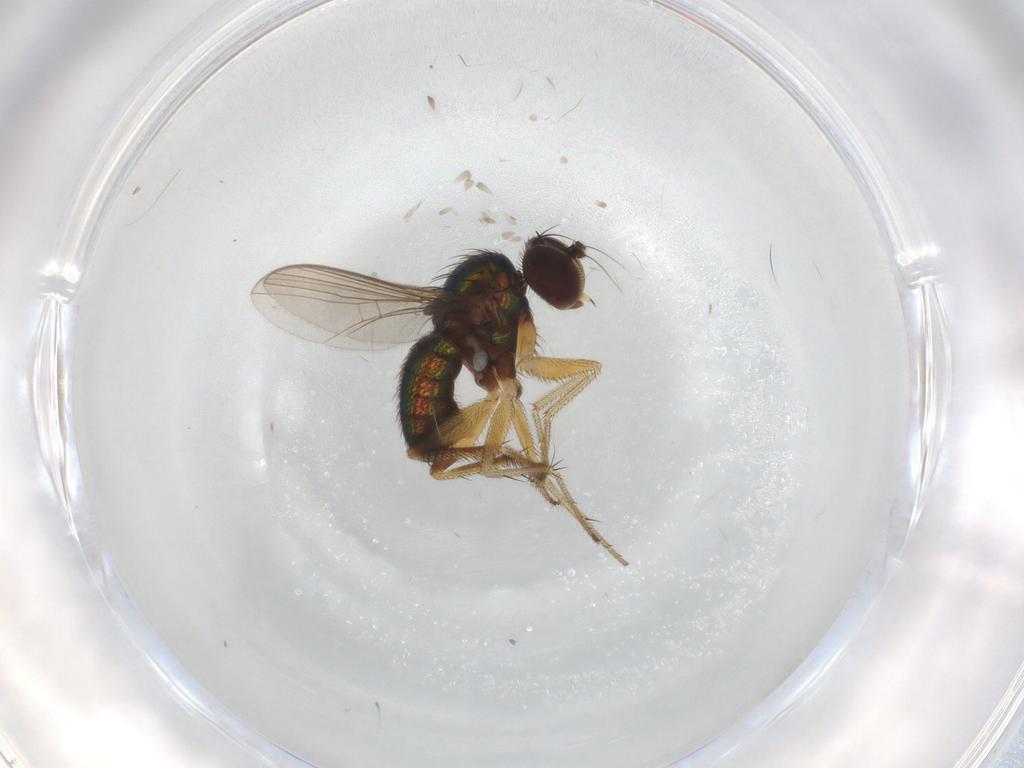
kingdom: Animalia
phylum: Arthropoda
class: Insecta
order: Diptera
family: Dolichopodidae
